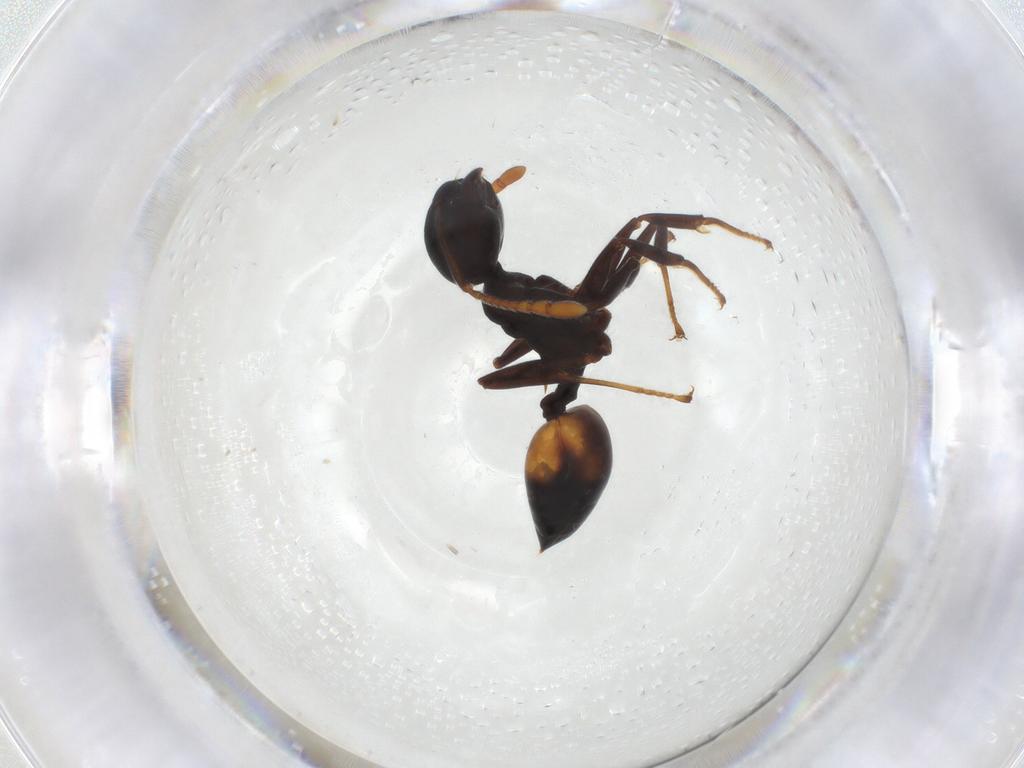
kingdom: Animalia
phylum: Arthropoda
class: Insecta
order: Hymenoptera
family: Formicidae
